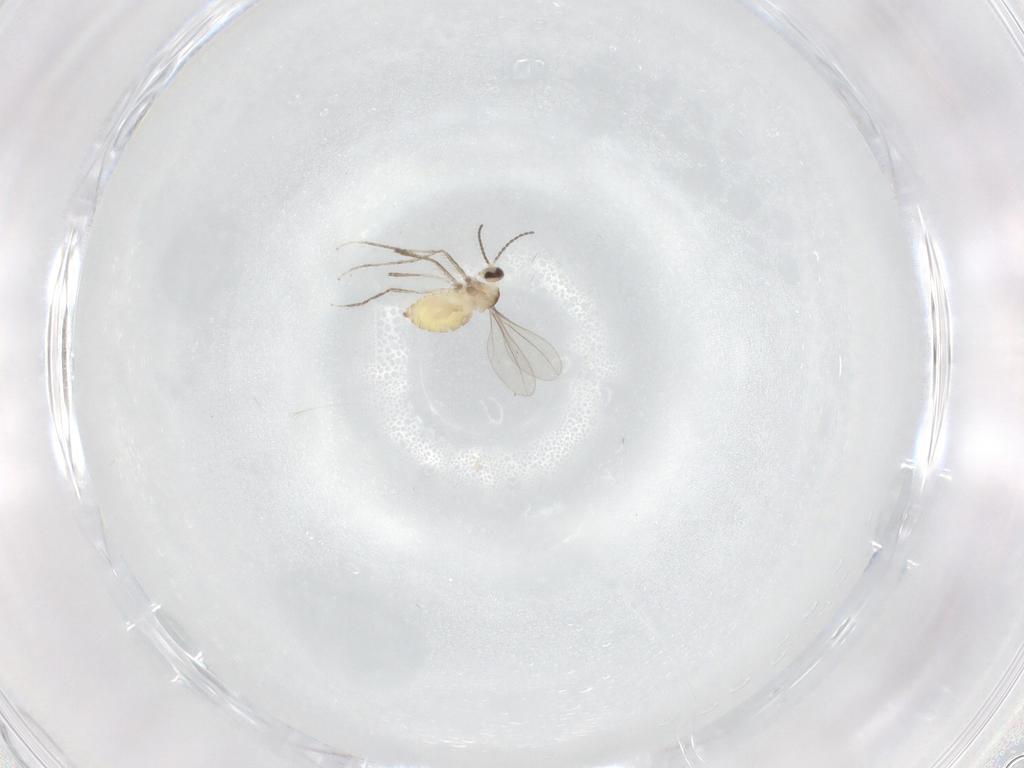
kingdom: Animalia
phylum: Arthropoda
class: Insecta
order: Diptera
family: Cecidomyiidae
